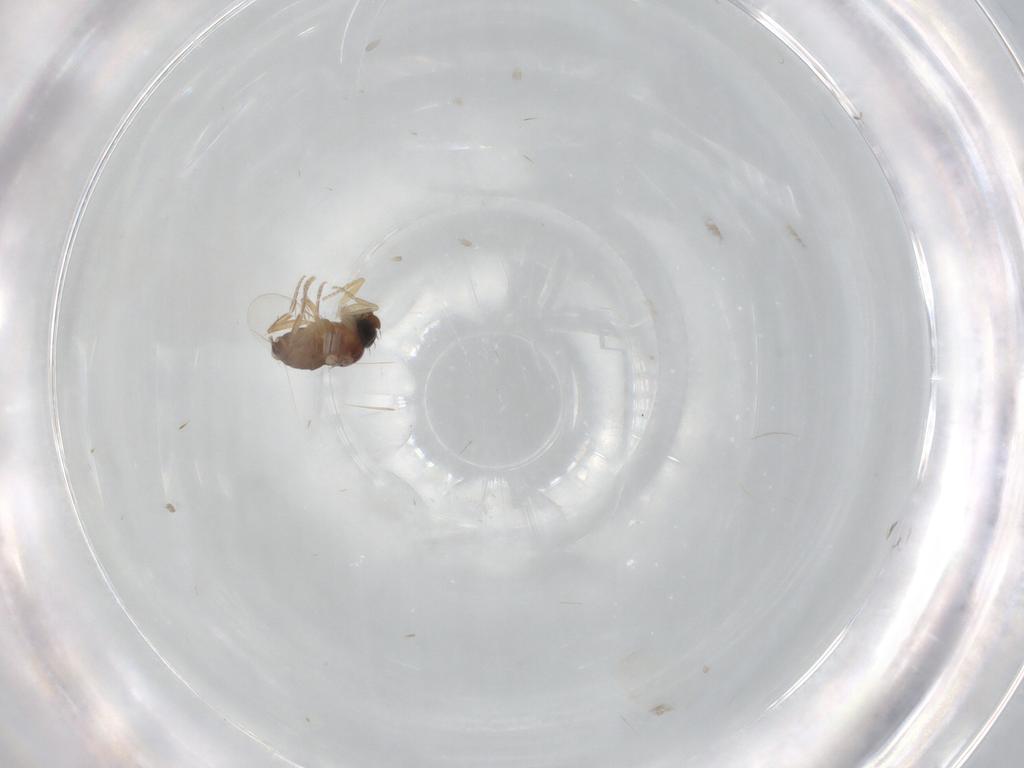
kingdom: Animalia
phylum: Arthropoda
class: Insecta
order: Diptera
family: Phoridae
